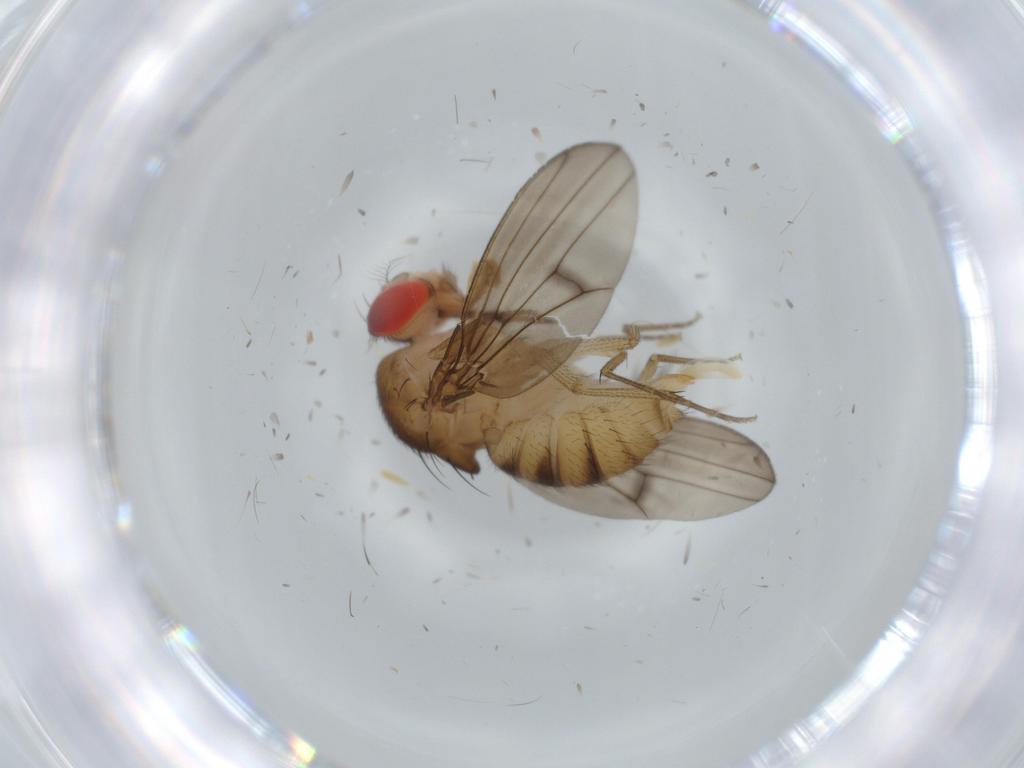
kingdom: Animalia
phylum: Arthropoda
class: Insecta
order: Diptera
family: Drosophilidae
